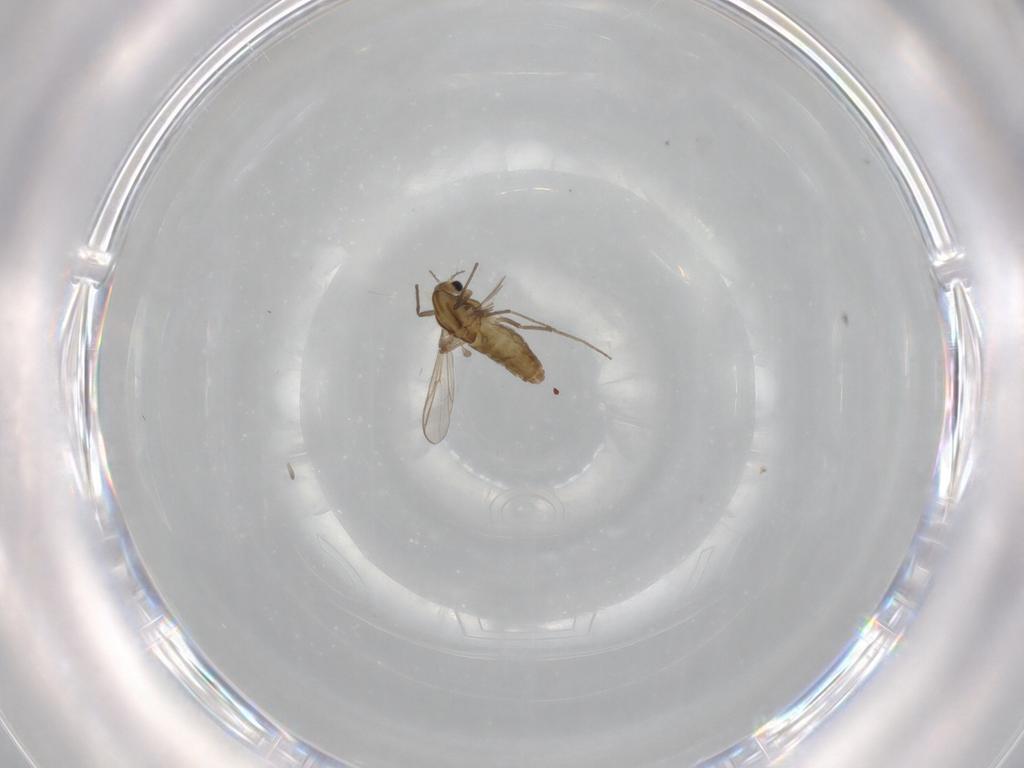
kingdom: Animalia
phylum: Arthropoda
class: Insecta
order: Diptera
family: Chironomidae
